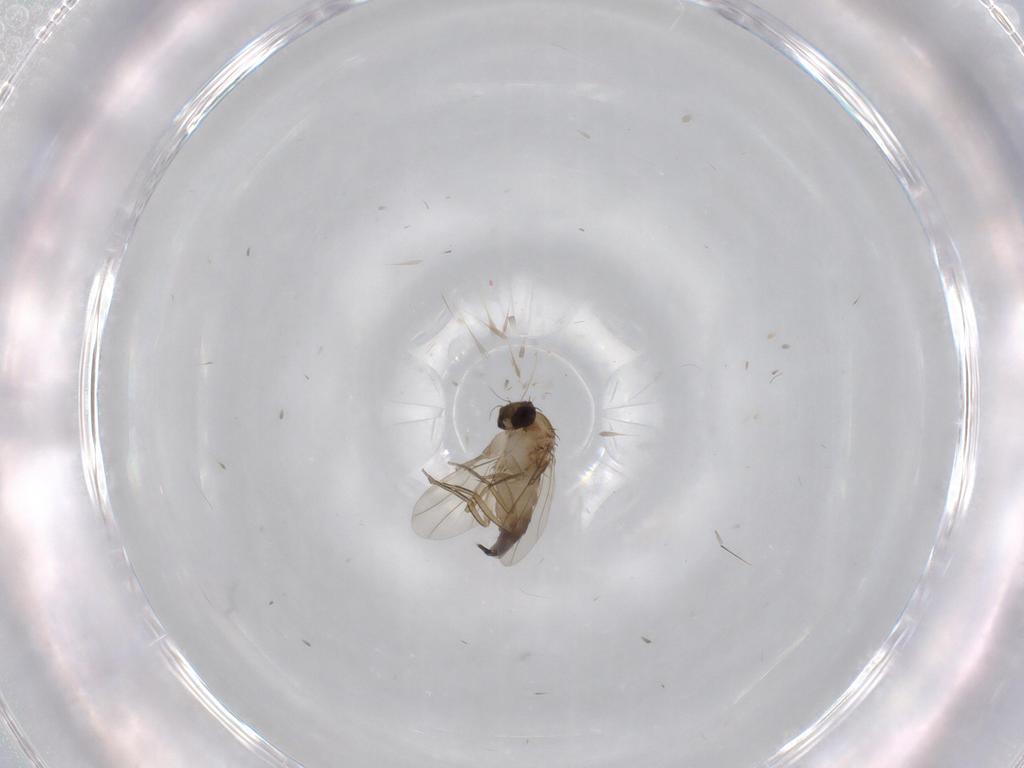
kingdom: Animalia
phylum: Arthropoda
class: Insecta
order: Diptera
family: Phoridae
